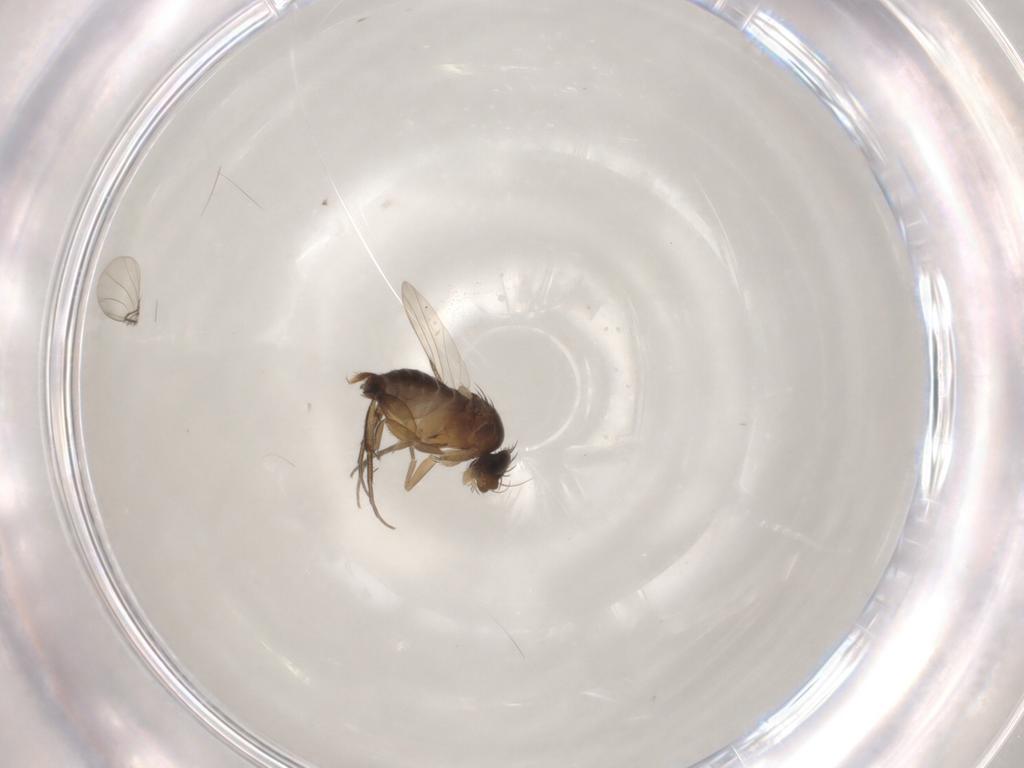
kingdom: Animalia
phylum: Arthropoda
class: Insecta
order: Diptera
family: Phoridae
